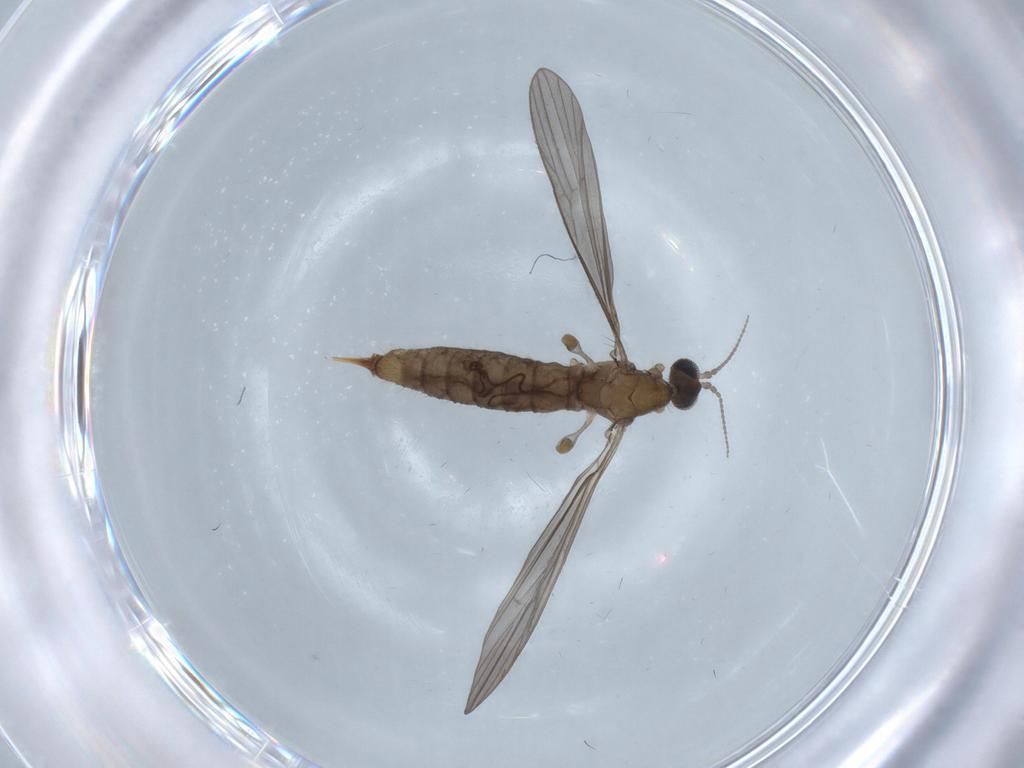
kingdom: Animalia
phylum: Arthropoda
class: Insecta
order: Diptera
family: Limoniidae
